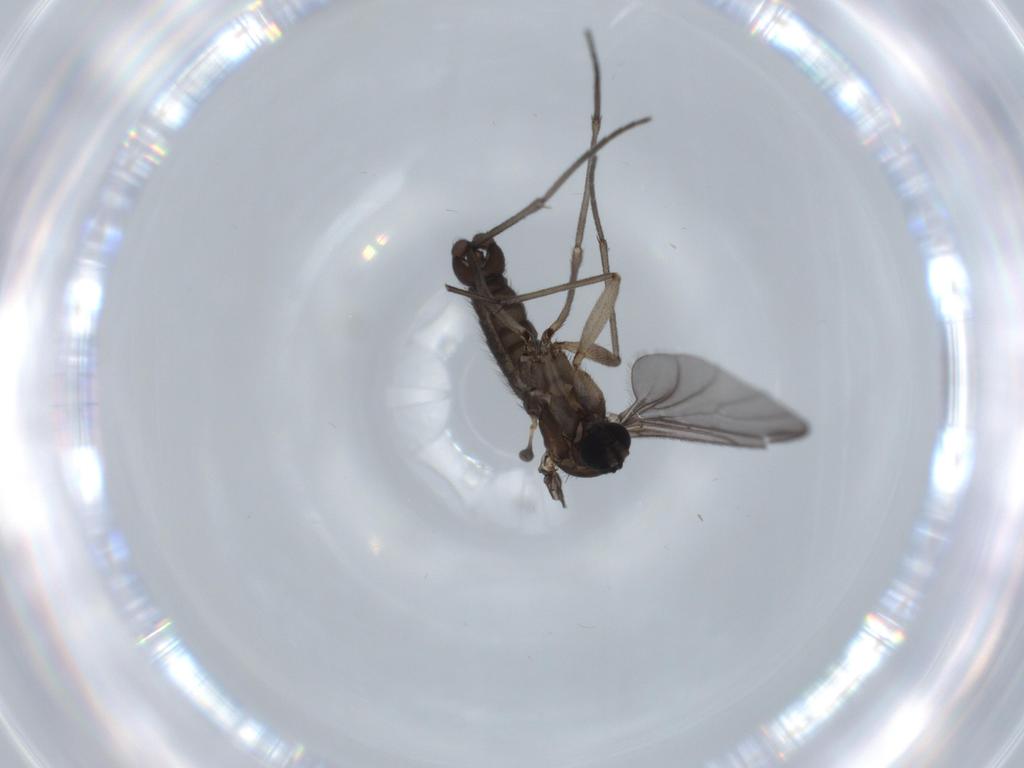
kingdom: Animalia
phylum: Arthropoda
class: Insecta
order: Diptera
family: Sciaridae
